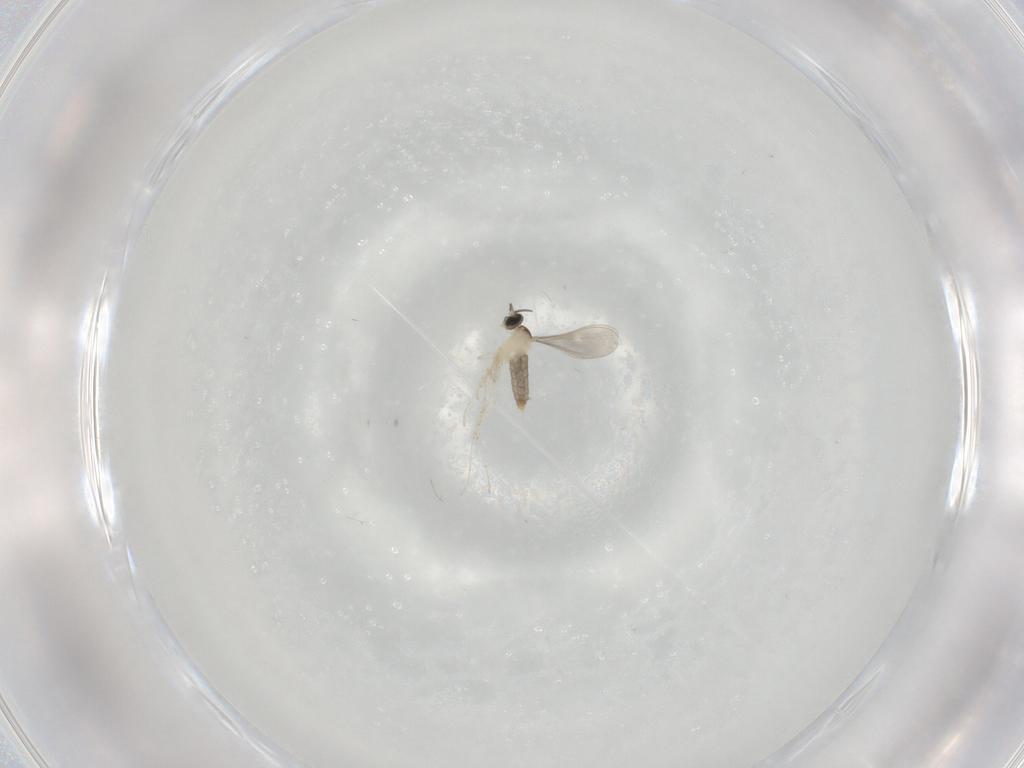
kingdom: Animalia
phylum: Arthropoda
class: Insecta
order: Diptera
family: Cecidomyiidae
